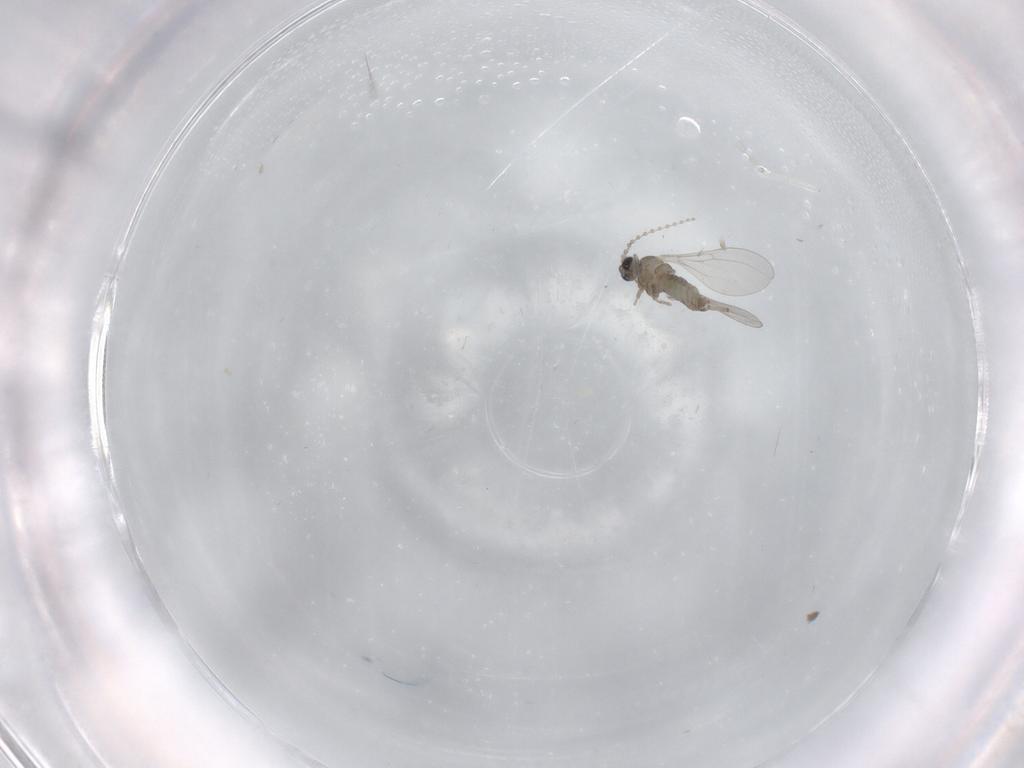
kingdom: Animalia
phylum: Arthropoda
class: Insecta
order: Diptera
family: Cecidomyiidae
